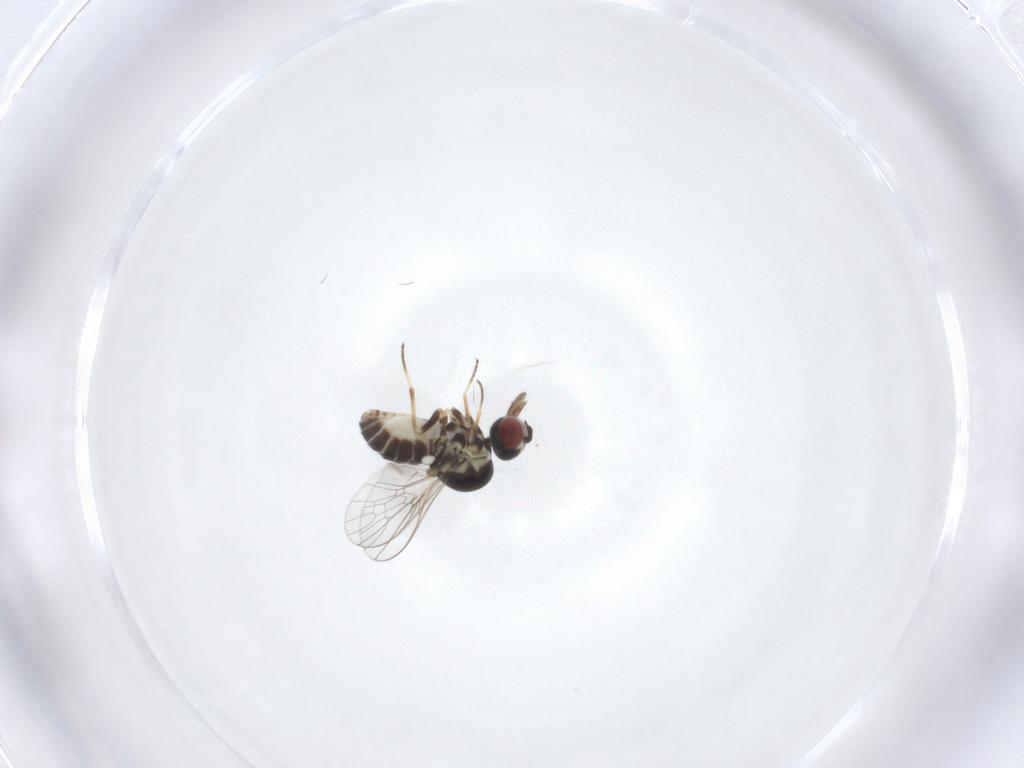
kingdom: Animalia
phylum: Arthropoda
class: Insecta
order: Diptera
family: Mythicomyiidae
